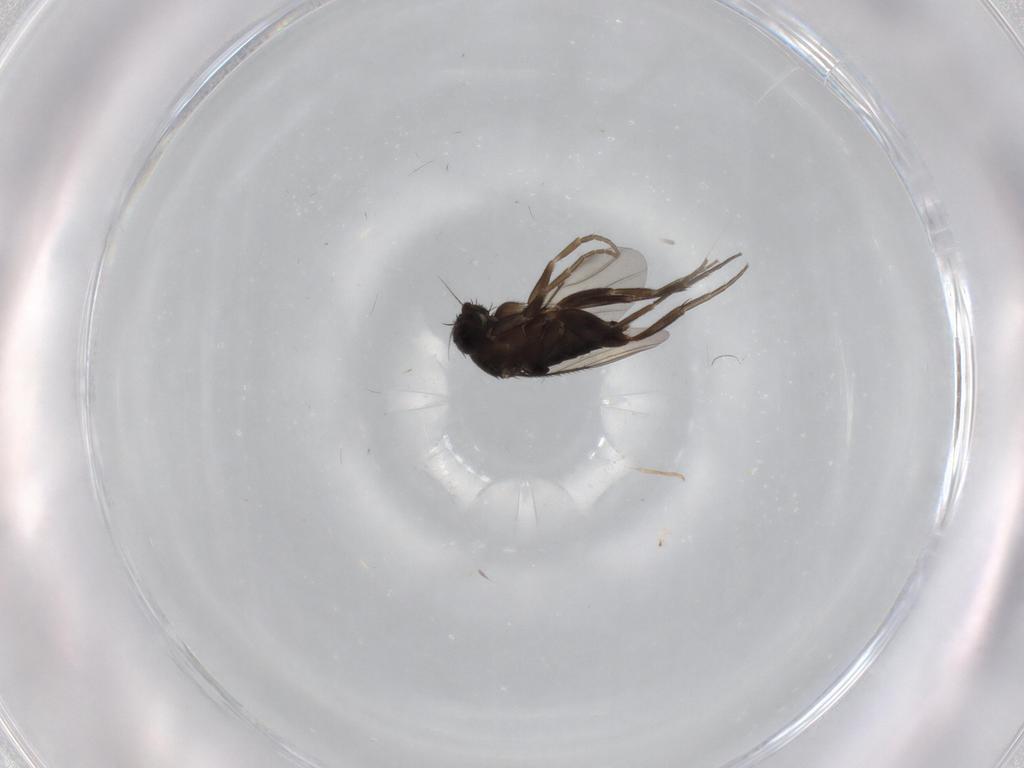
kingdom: Animalia
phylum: Arthropoda
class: Insecta
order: Diptera
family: Phoridae
